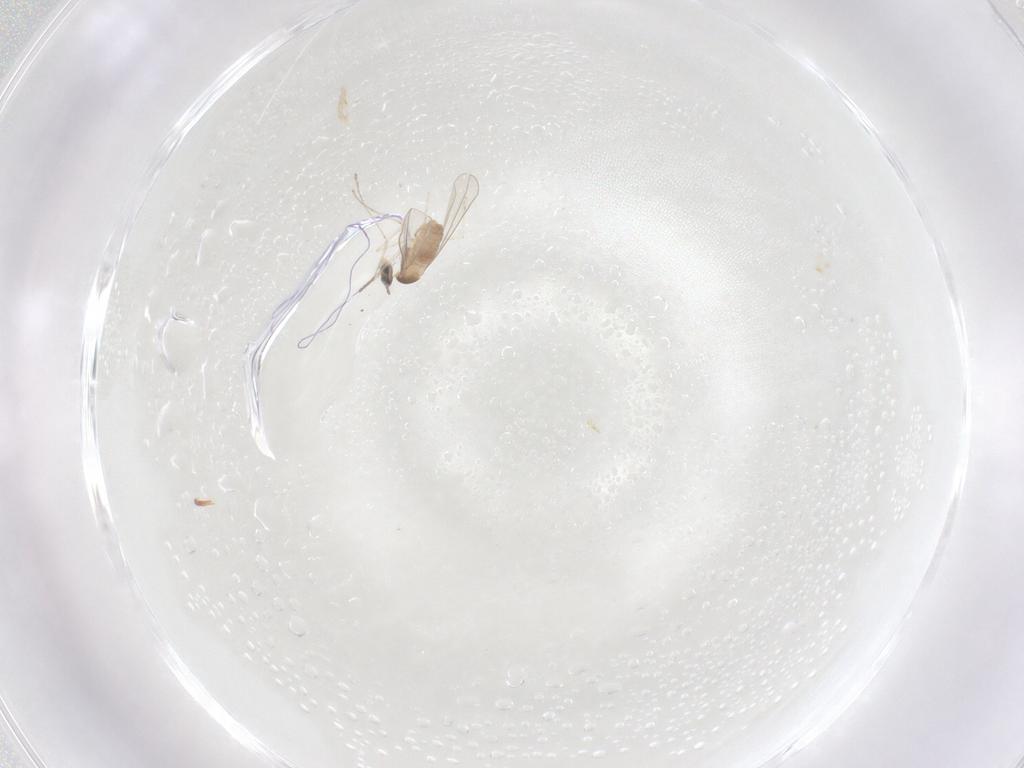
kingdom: Animalia
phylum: Arthropoda
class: Insecta
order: Diptera
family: Cecidomyiidae
